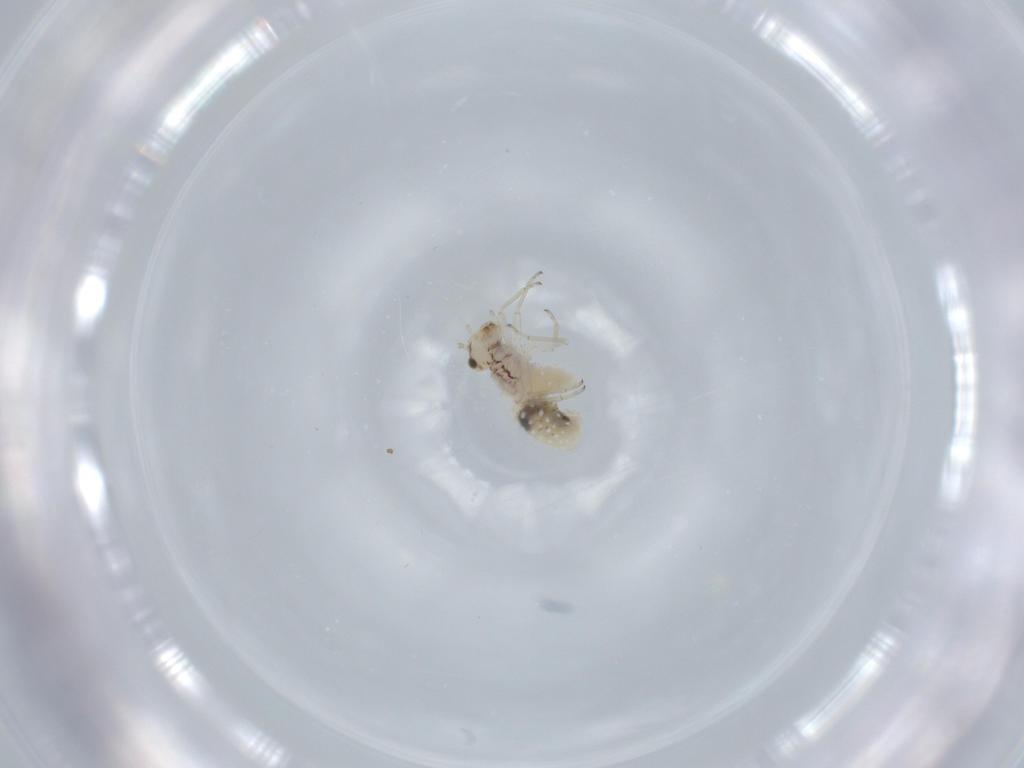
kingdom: Animalia
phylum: Arthropoda
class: Insecta
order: Psocodea
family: Lachesillidae
